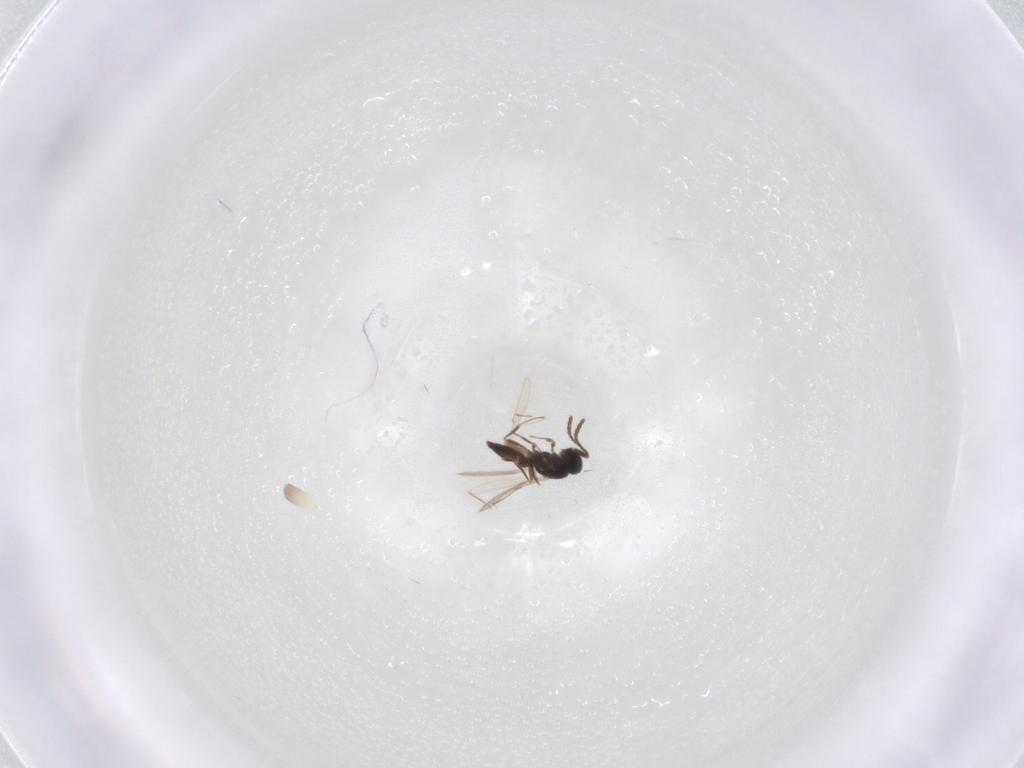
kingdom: Animalia
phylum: Arthropoda
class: Insecta
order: Hymenoptera
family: Scelionidae
